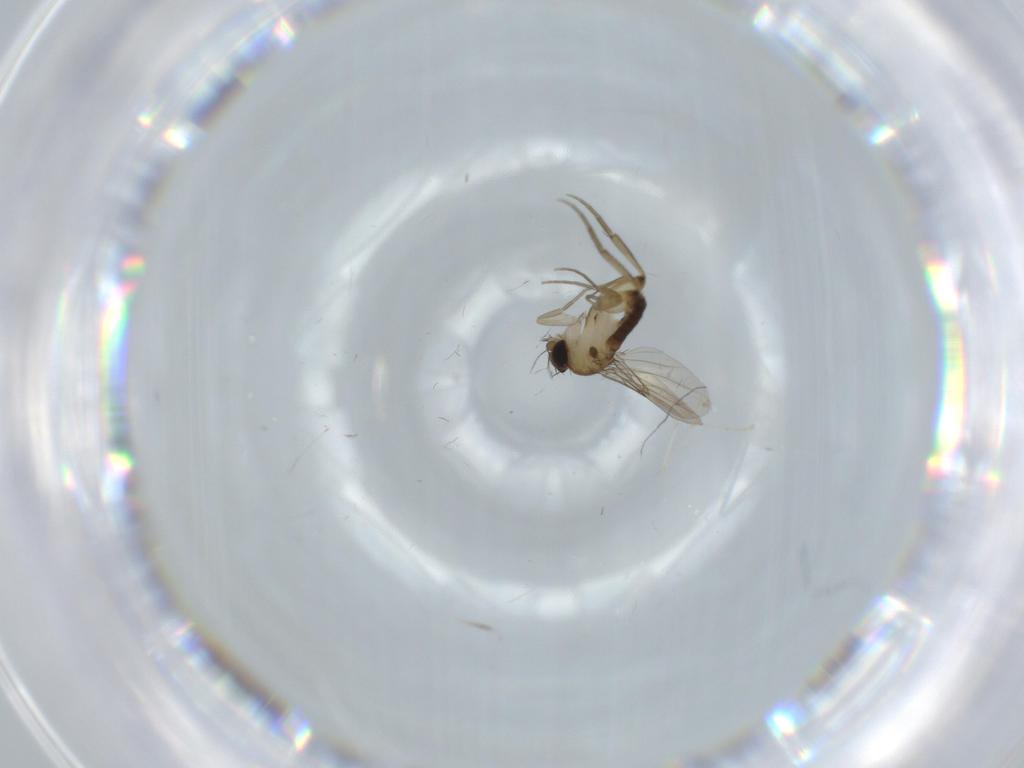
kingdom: Animalia
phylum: Arthropoda
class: Insecta
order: Diptera
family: Phoridae
